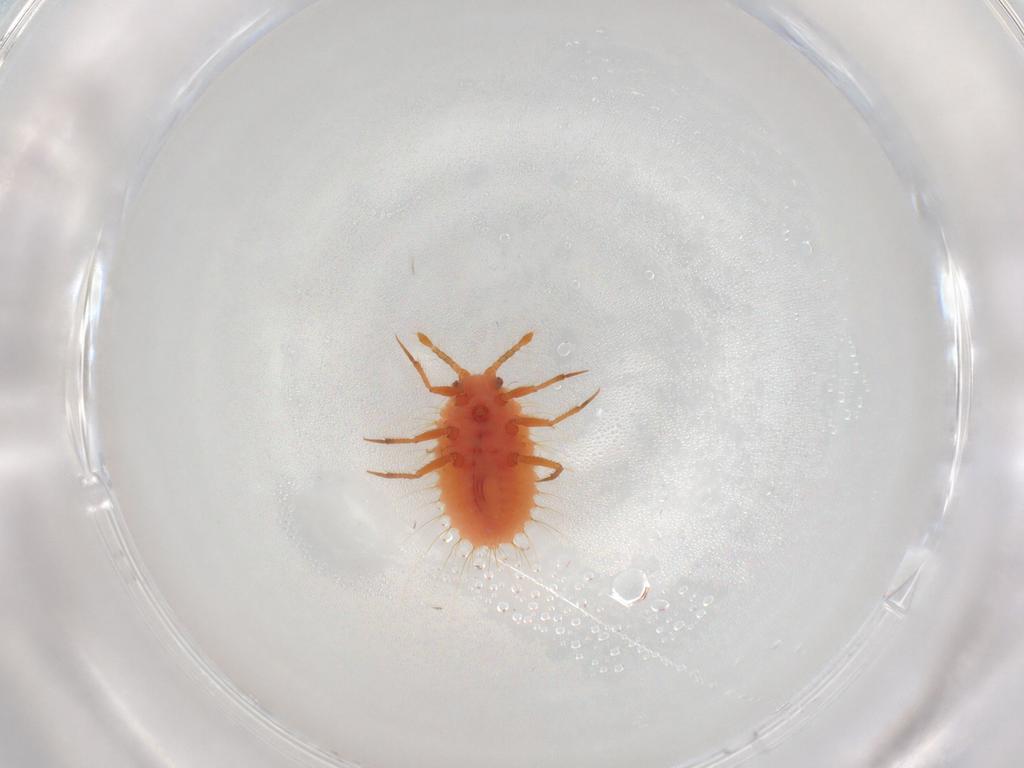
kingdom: Animalia
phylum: Arthropoda
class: Insecta
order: Hemiptera
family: Coccoidea_incertae_sedis
